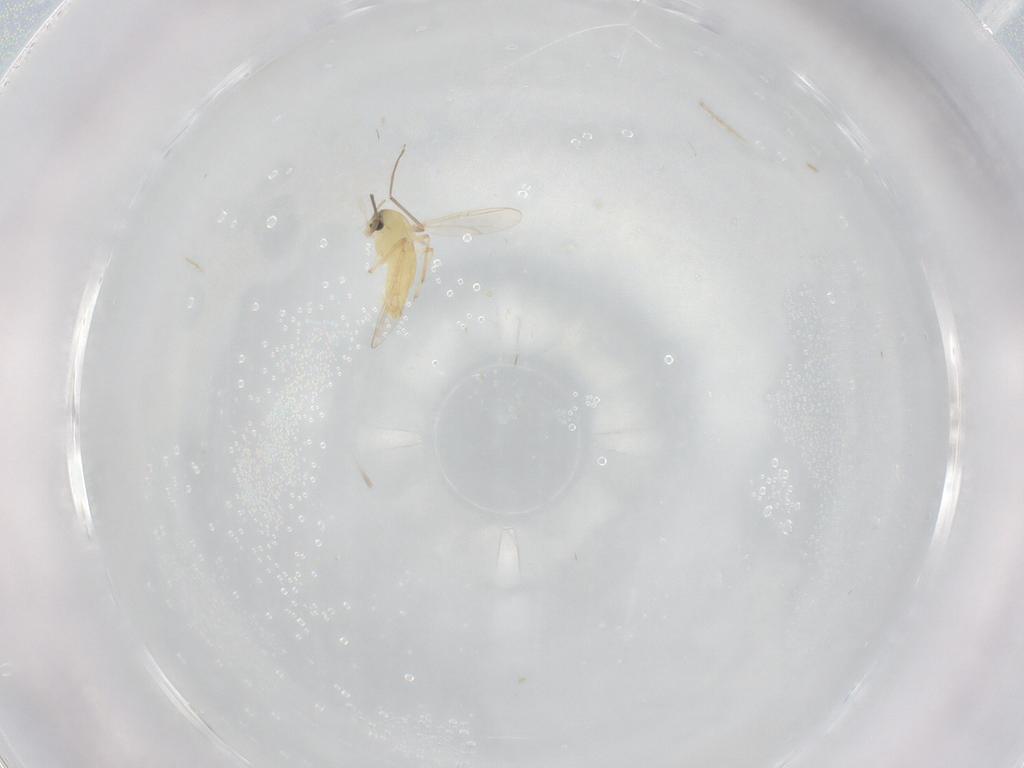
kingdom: Animalia
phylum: Arthropoda
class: Insecta
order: Diptera
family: Chironomidae
